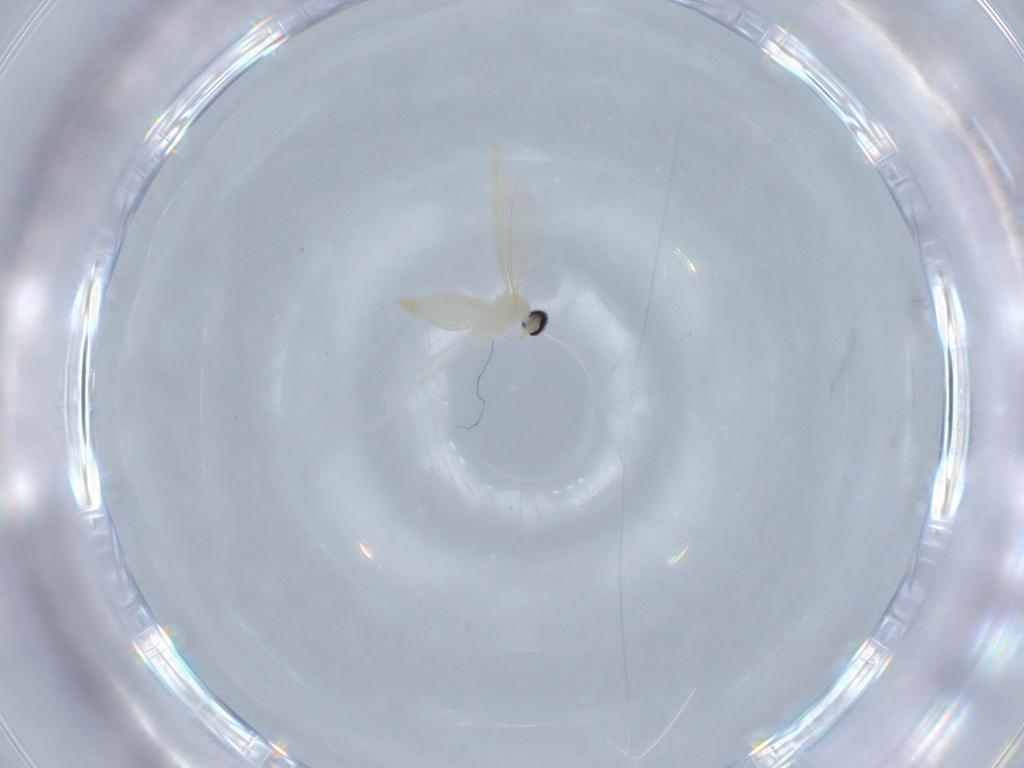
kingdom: Animalia
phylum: Arthropoda
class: Insecta
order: Diptera
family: Cecidomyiidae
